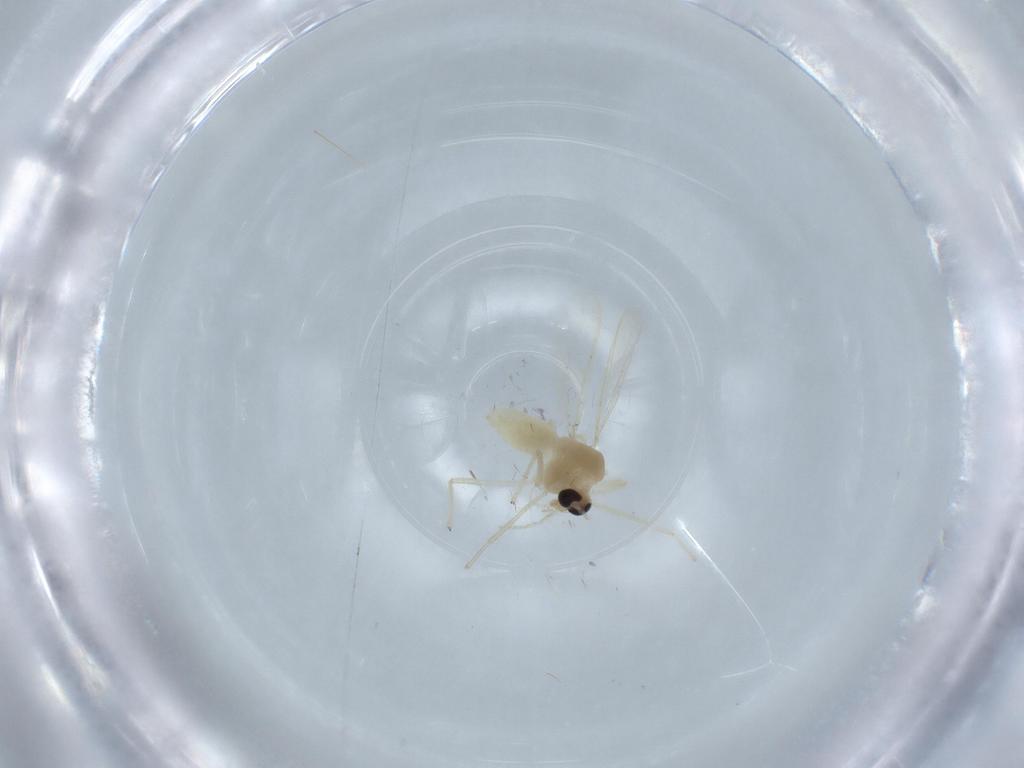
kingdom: Animalia
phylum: Arthropoda
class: Insecta
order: Diptera
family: Chironomidae
